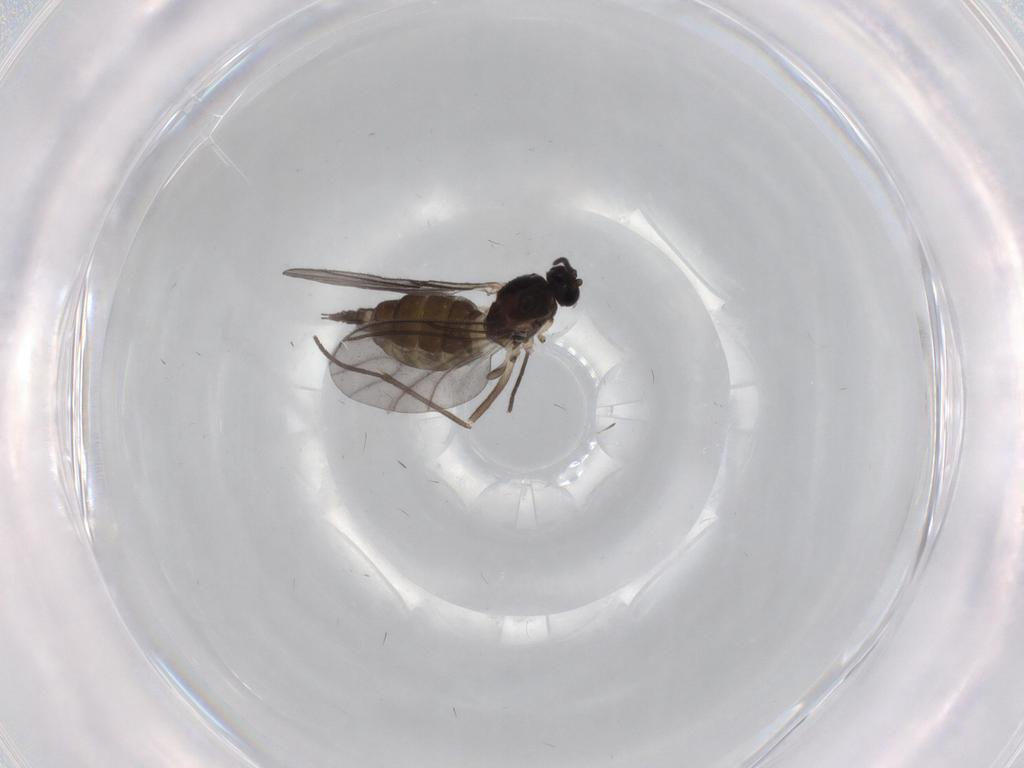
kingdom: Animalia
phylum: Arthropoda
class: Insecta
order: Diptera
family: Sciaridae
